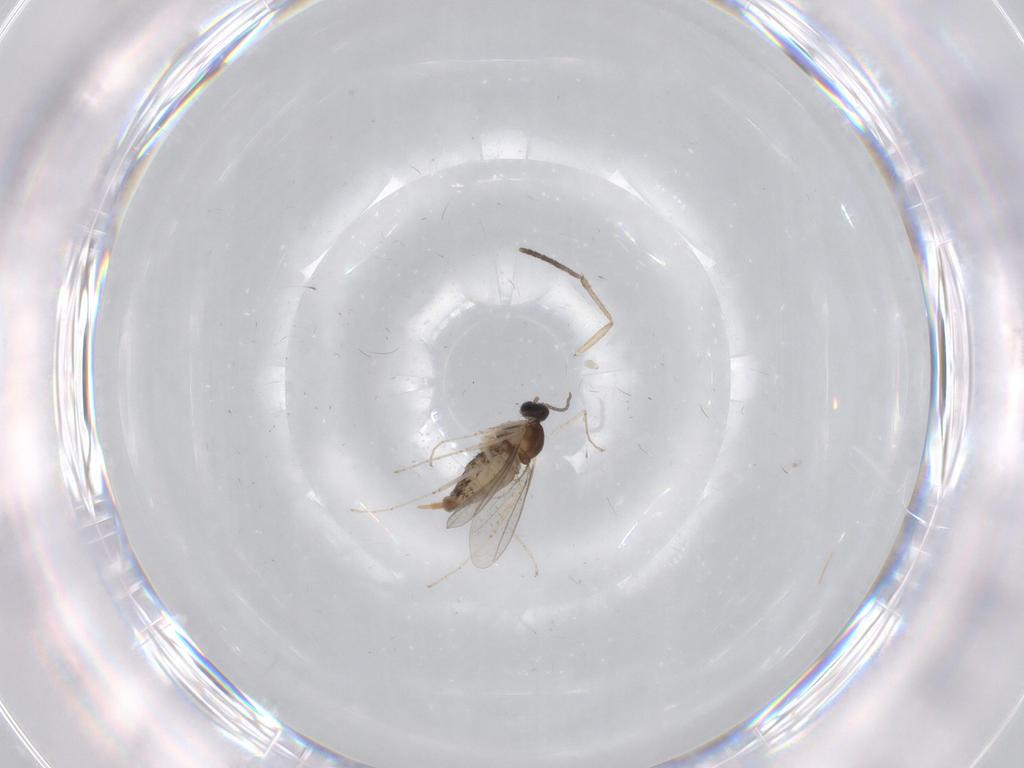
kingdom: Animalia
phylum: Arthropoda
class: Insecta
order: Diptera
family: Cecidomyiidae
